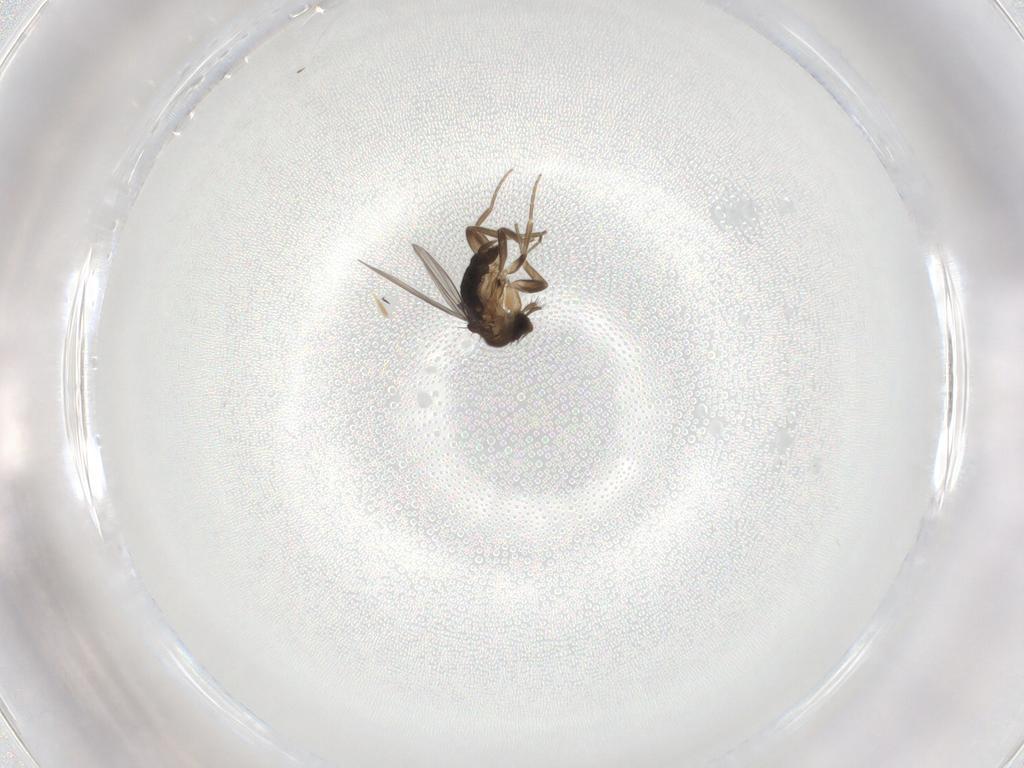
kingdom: Animalia
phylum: Arthropoda
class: Insecta
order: Diptera
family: Phoridae
